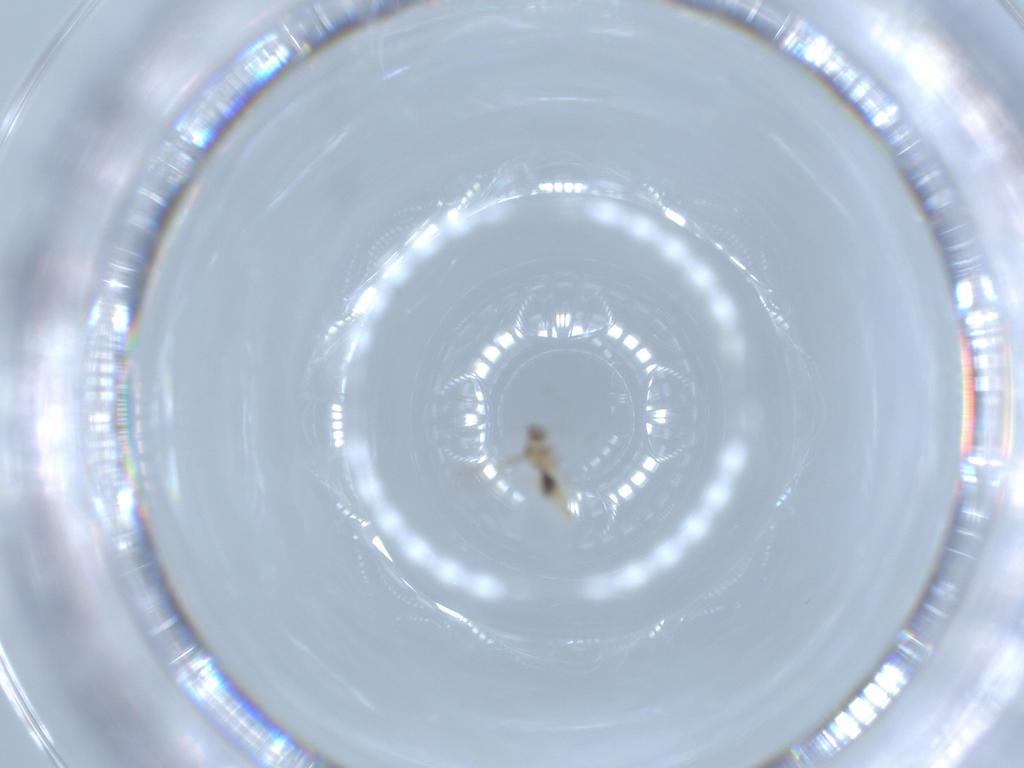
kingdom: Animalia
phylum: Arthropoda
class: Insecta
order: Diptera
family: Cecidomyiidae
